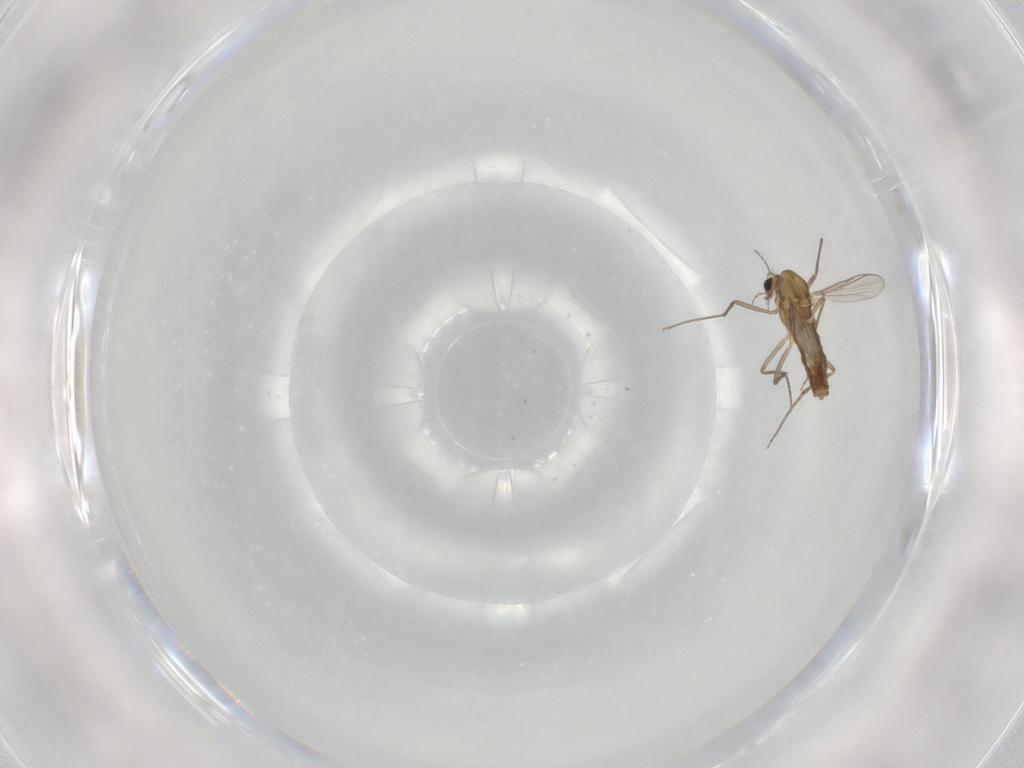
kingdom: Animalia
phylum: Arthropoda
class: Insecta
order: Diptera
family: Chironomidae
